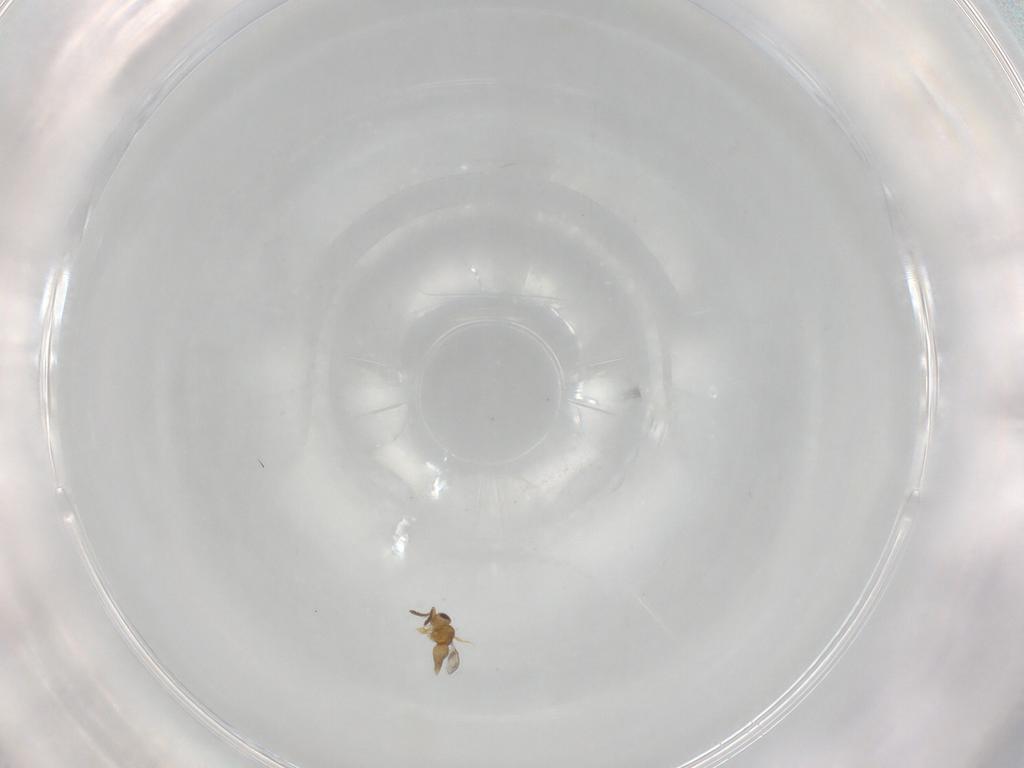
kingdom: Animalia
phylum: Arthropoda
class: Insecta
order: Hymenoptera
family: Ceraphronidae
